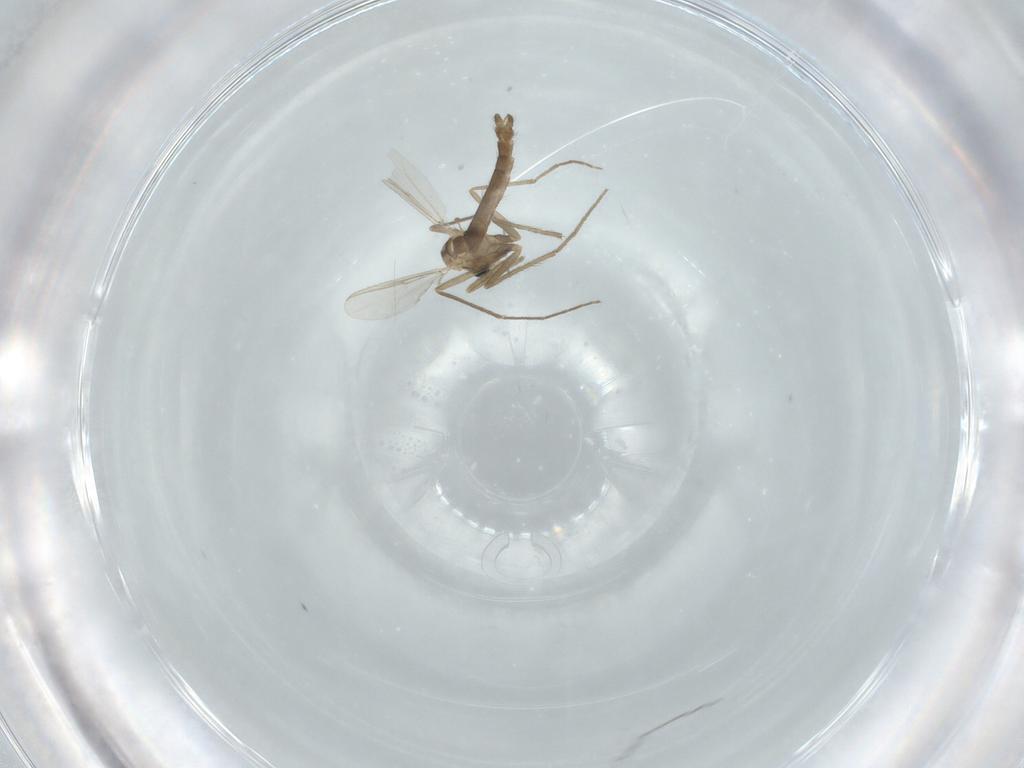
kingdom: Animalia
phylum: Arthropoda
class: Insecta
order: Diptera
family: Chironomidae
